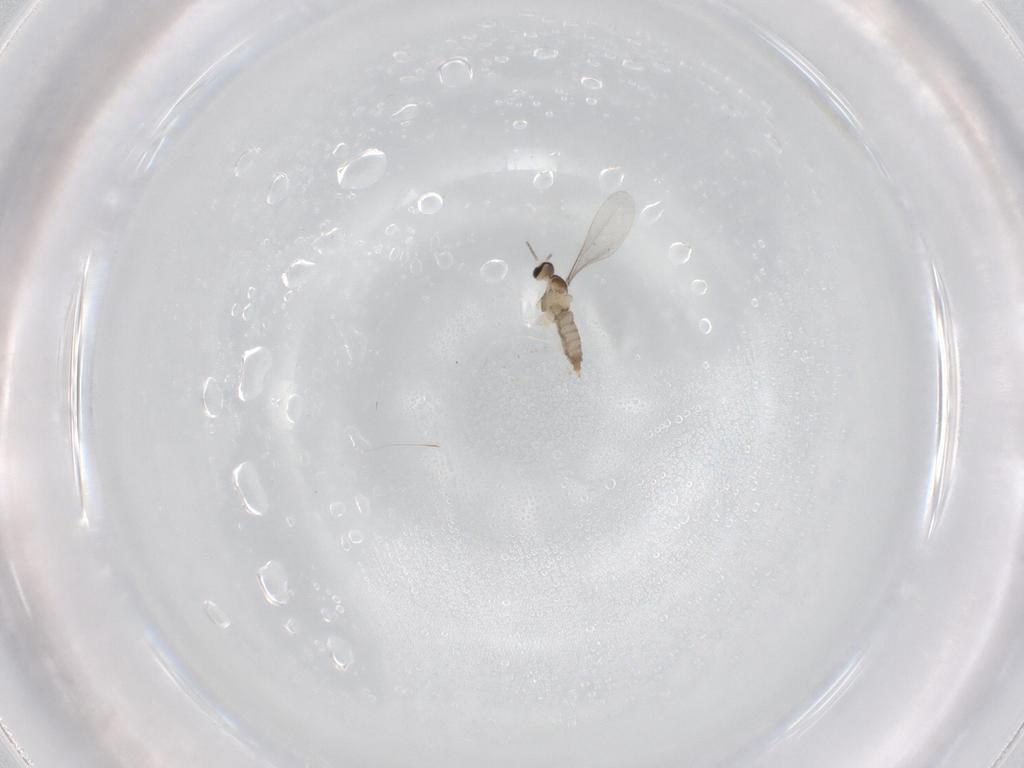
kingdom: Animalia
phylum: Arthropoda
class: Insecta
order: Diptera
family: Cecidomyiidae
